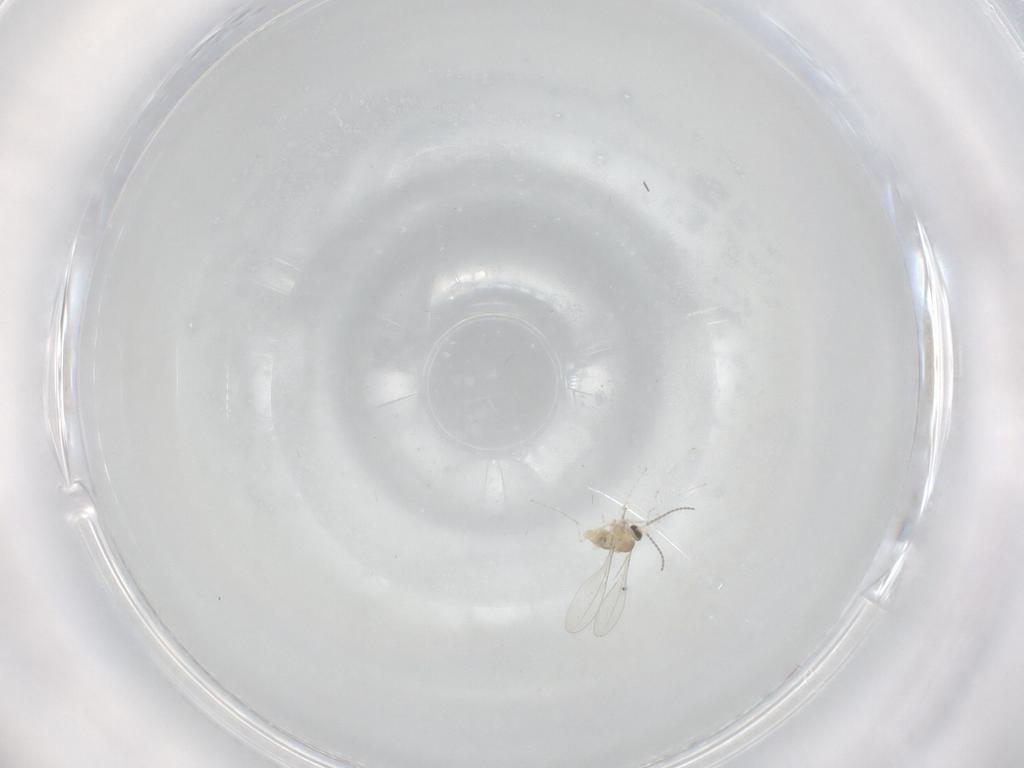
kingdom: Animalia
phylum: Arthropoda
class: Insecta
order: Diptera
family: Cecidomyiidae
